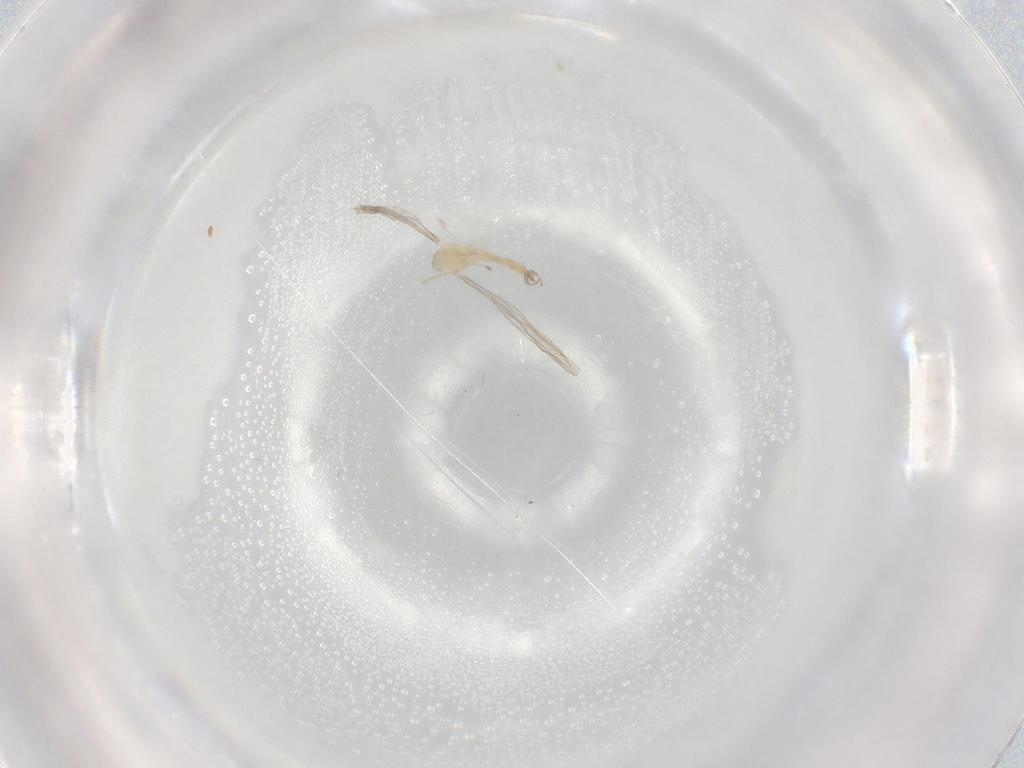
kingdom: Animalia
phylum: Arthropoda
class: Insecta
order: Diptera
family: Cecidomyiidae
